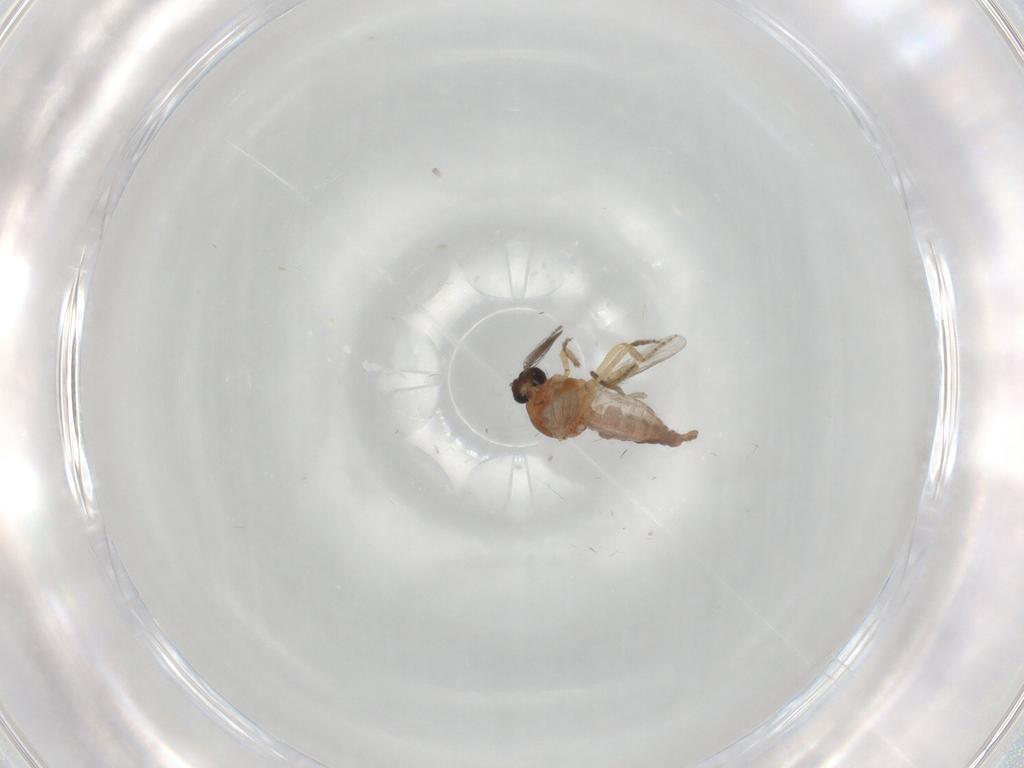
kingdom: Animalia
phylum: Arthropoda
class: Insecta
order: Diptera
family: Ceratopogonidae
